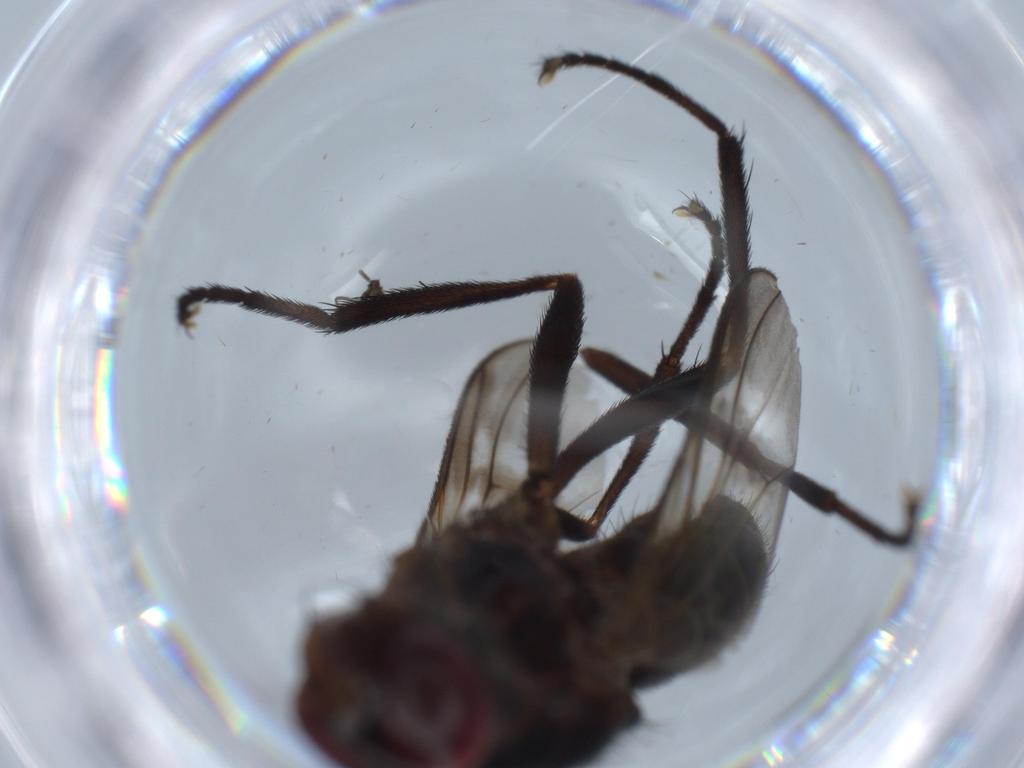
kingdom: Animalia
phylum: Arthropoda
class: Insecta
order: Diptera
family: Calliphoridae
